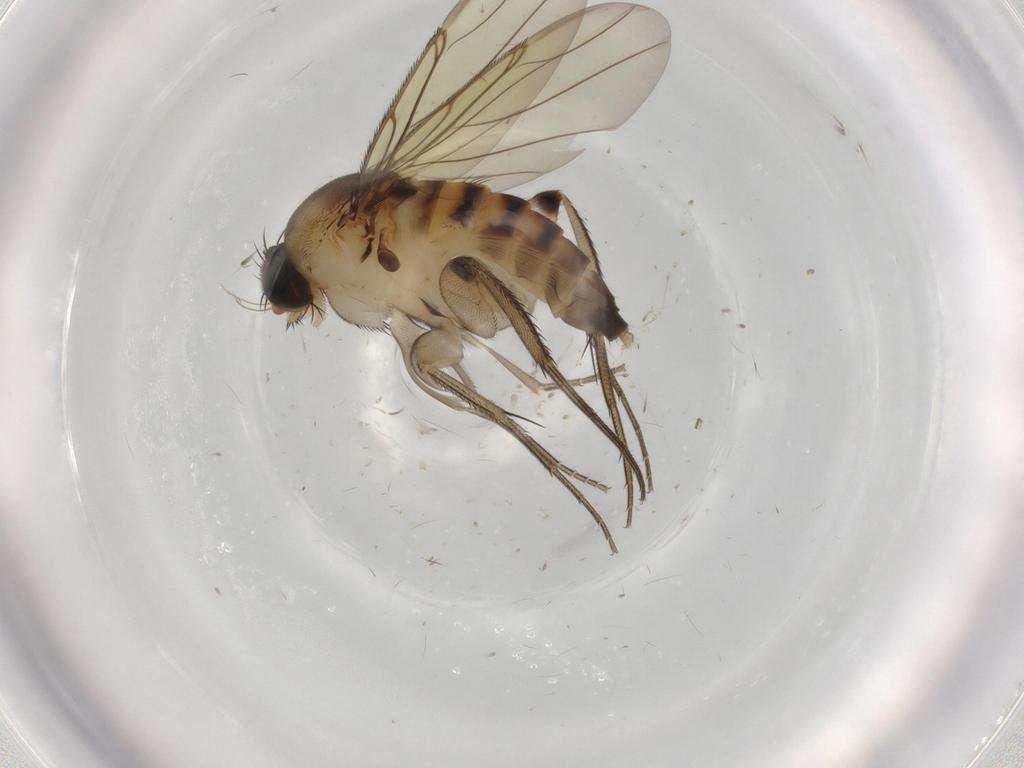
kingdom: Animalia
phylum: Arthropoda
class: Insecta
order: Diptera
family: Phoridae
